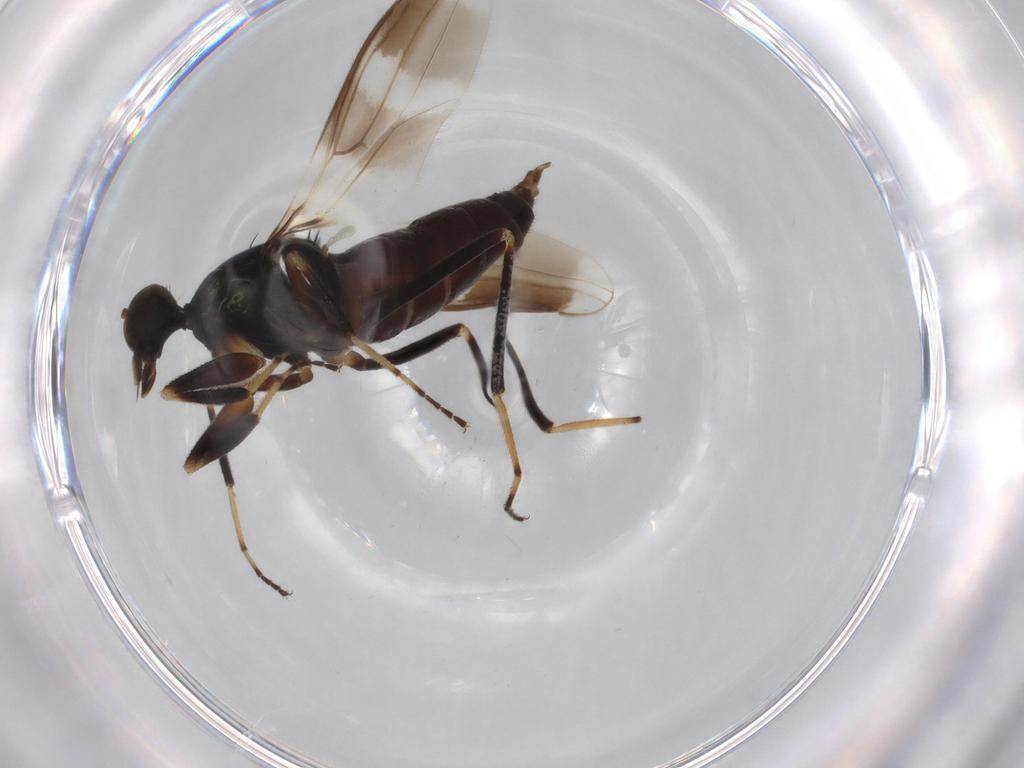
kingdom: Animalia
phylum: Arthropoda
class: Insecta
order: Diptera
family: Hybotidae
